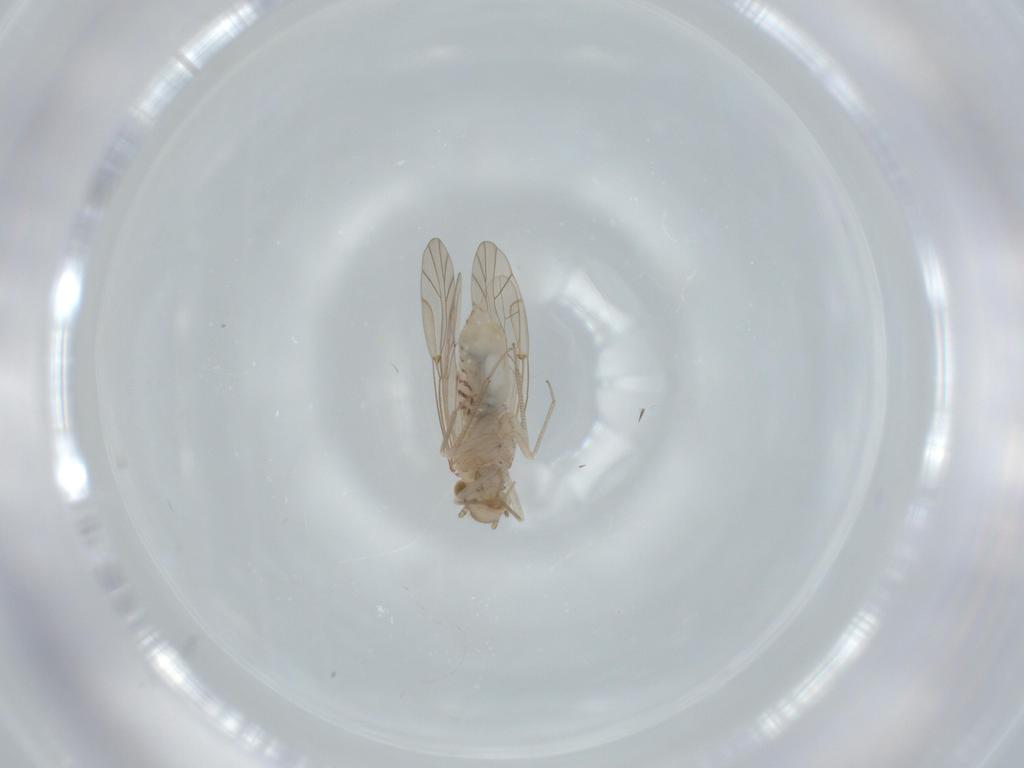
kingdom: Animalia
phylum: Arthropoda
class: Insecta
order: Psocodea
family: Lachesillidae
